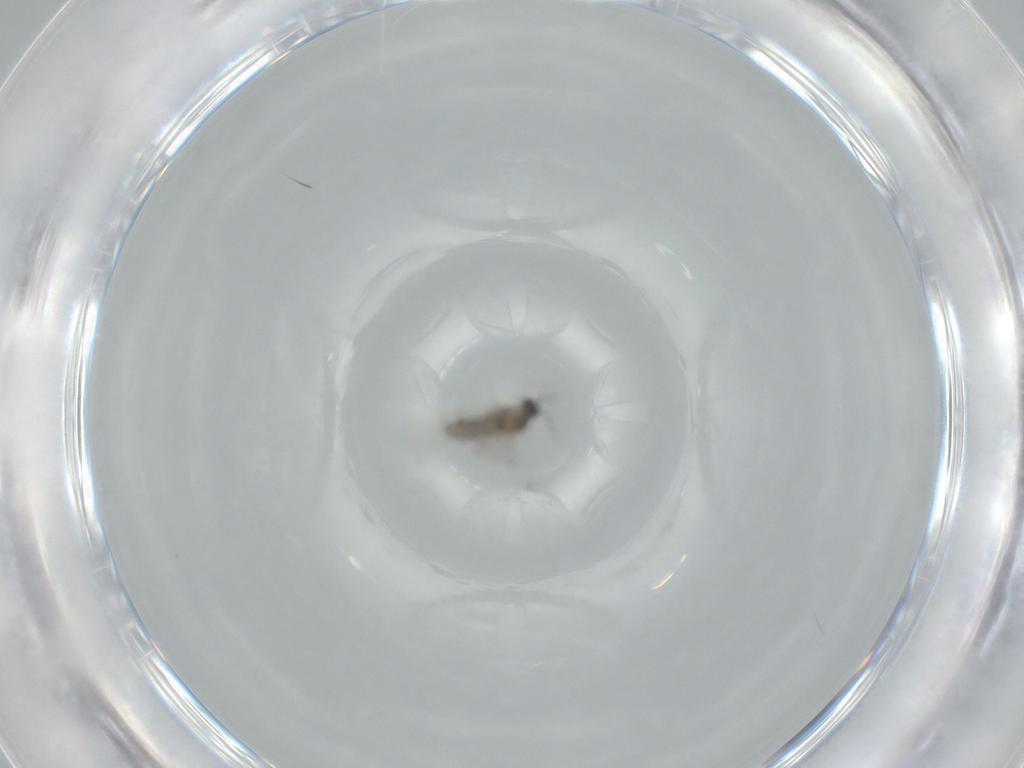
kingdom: Animalia
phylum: Arthropoda
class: Insecta
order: Diptera
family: Cecidomyiidae
